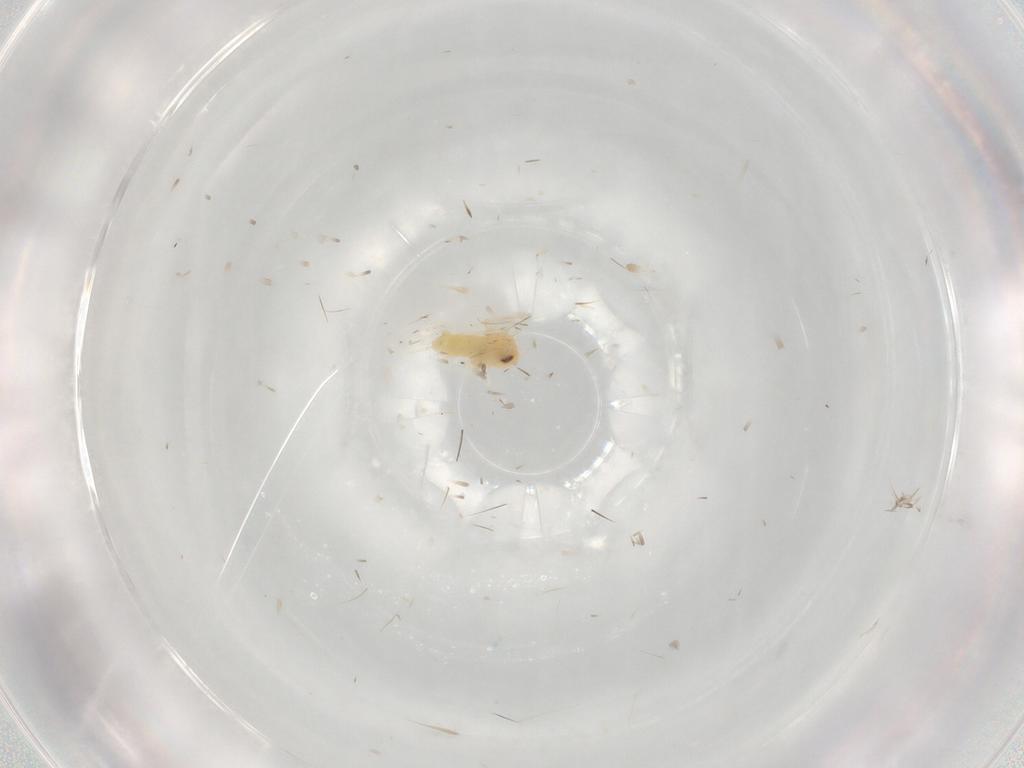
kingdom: Animalia
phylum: Arthropoda
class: Insecta
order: Hemiptera
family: Aleyrodidae
